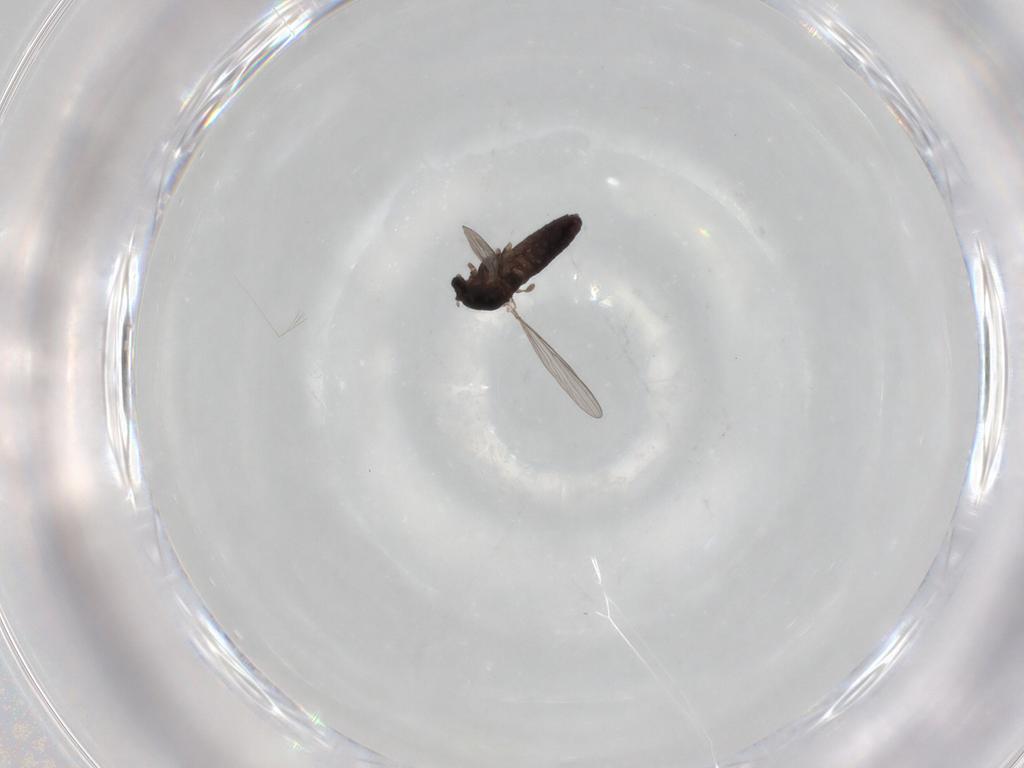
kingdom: Animalia
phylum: Arthropoda
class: Insecta
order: Diptera
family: Chironomidae
